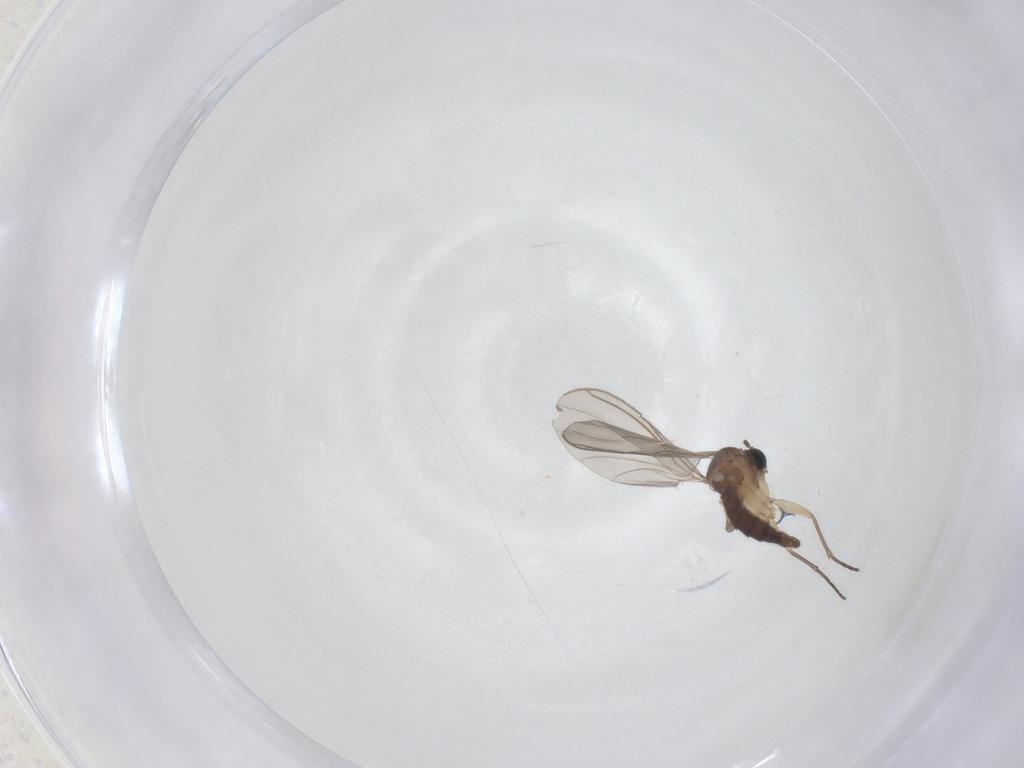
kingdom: Animalia
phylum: Arthropoda
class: Insecta
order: Diptera
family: Sciaridae
